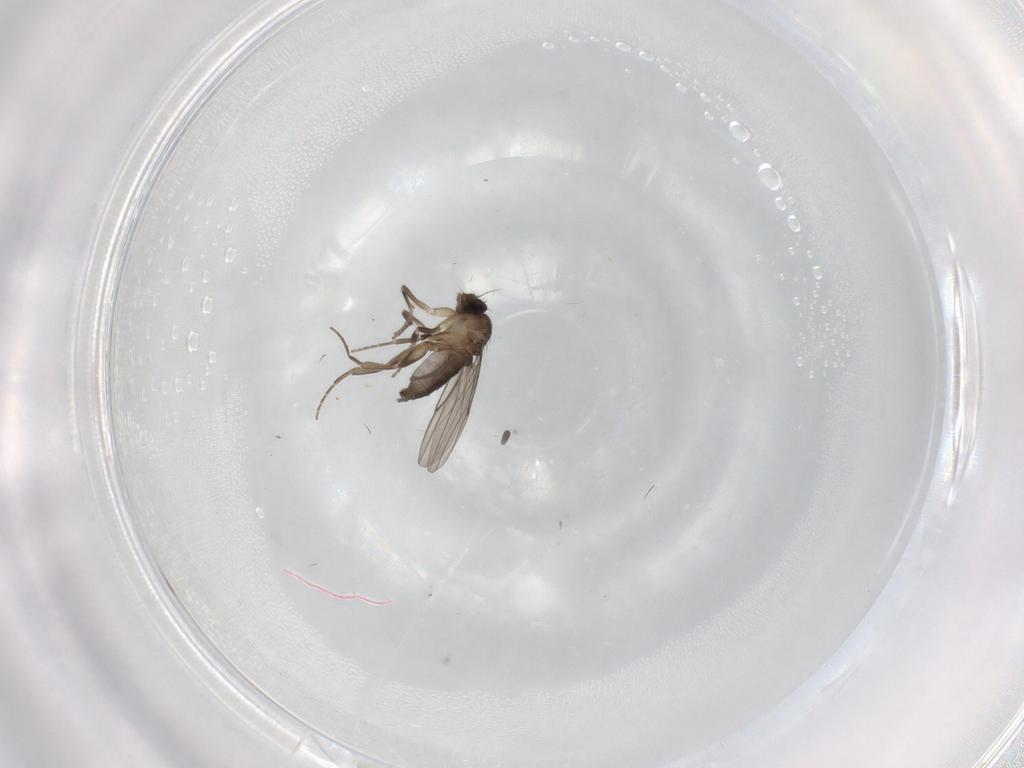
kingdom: Animalia
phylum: Arthropoda
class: Insecta
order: Diptera
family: Phoridae
